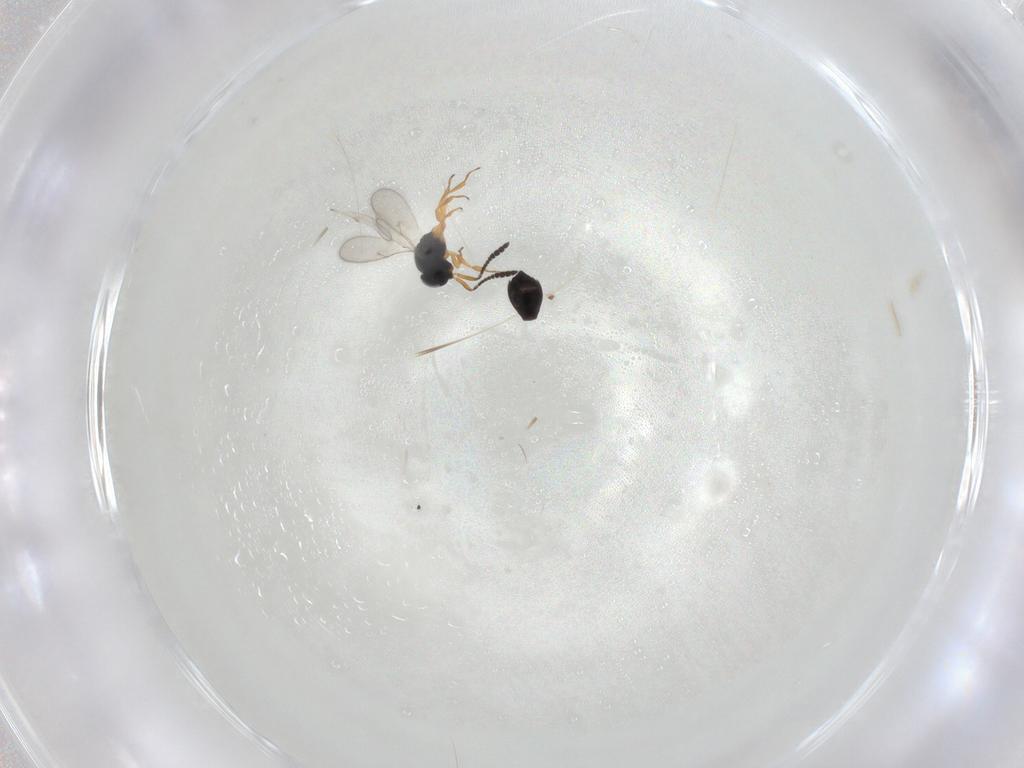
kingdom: Animalia
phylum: Arthropoda
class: Insecta
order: Hymenoptera
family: Scelionidae
